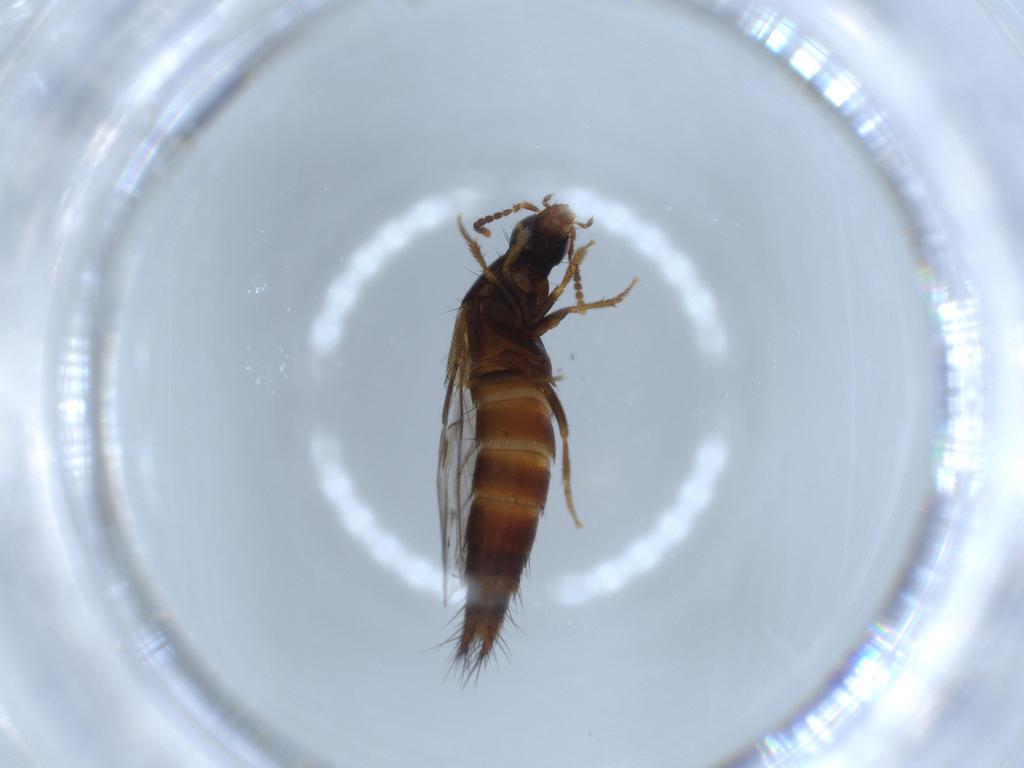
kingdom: Animalia
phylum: Arthropoda
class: Insecta
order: Coleoptera
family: Staphylinidae
